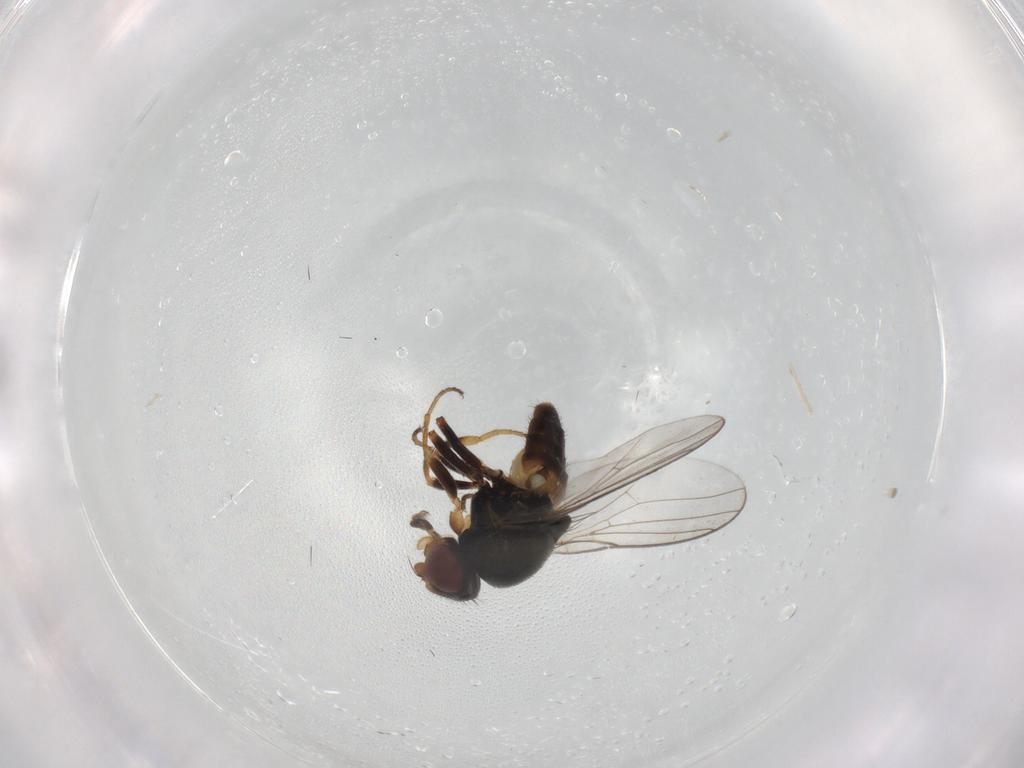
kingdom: Animalia
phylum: Arthropoda
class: Insecta
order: Diptera
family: Chloropidae
